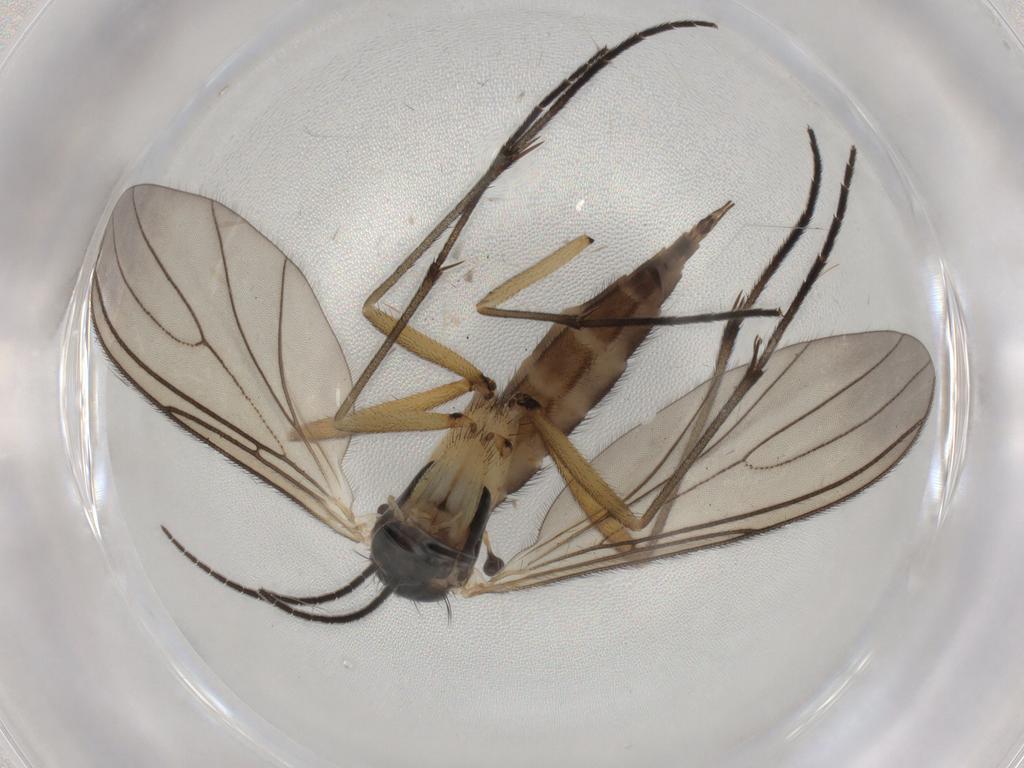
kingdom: Animalia
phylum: Arthropoda
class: Insecta
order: Diptera
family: Sciaridae
